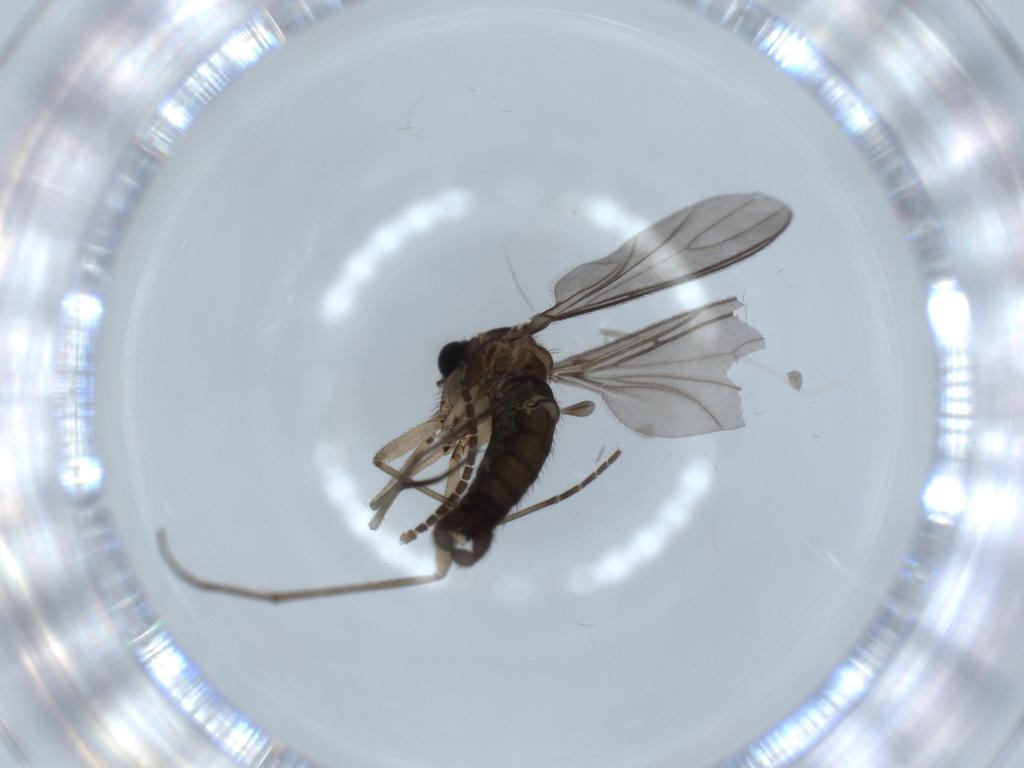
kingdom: Animalia
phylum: Arthropoda
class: Insecta
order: Diptera
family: Sciaridae
